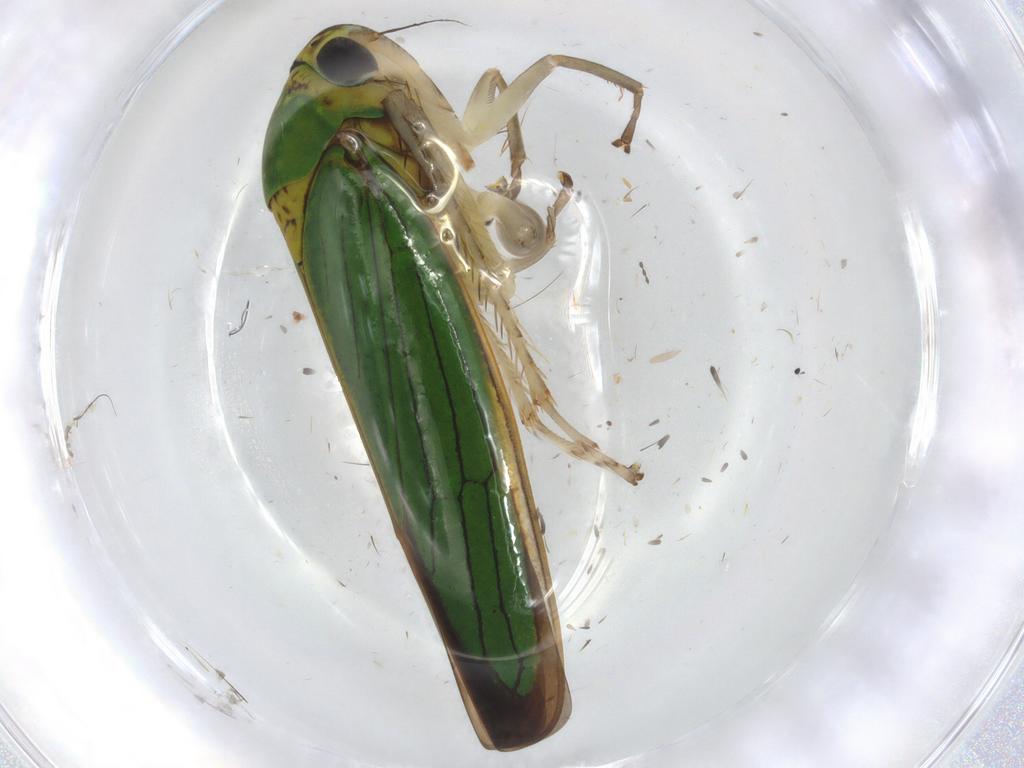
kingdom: Animalia
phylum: Arthropoda
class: Insecta
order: Hemiptera
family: Cicadellidae
